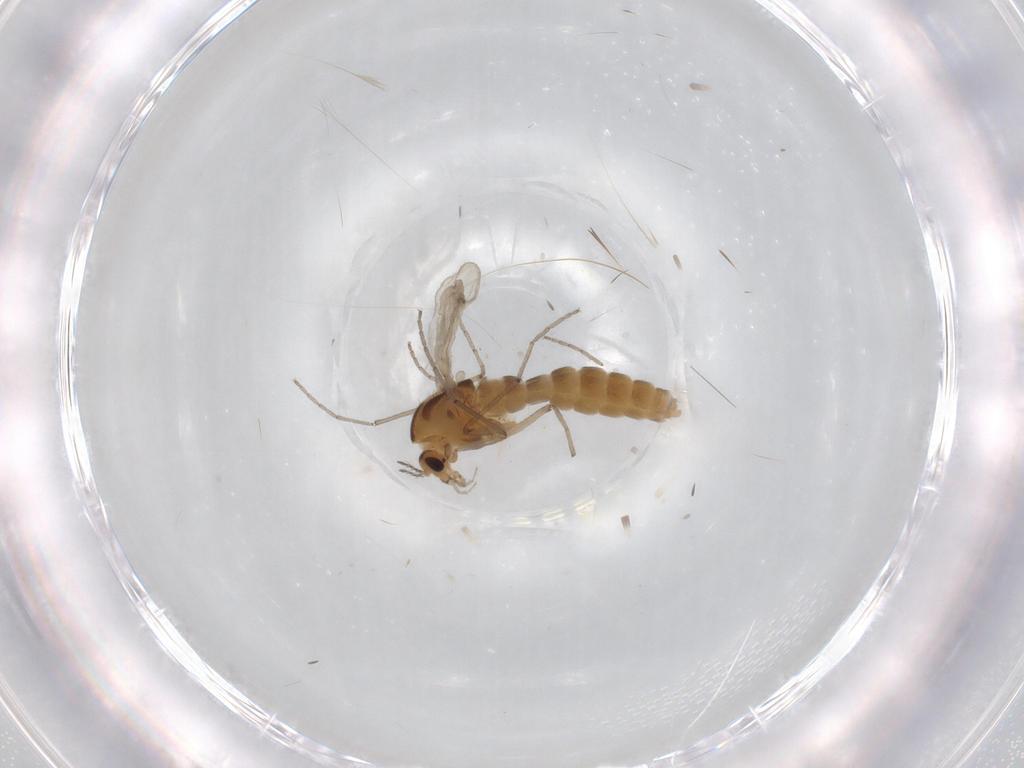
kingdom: Animalia
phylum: Arthropoda
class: Insecta
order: Diptera
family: Chironomidae
